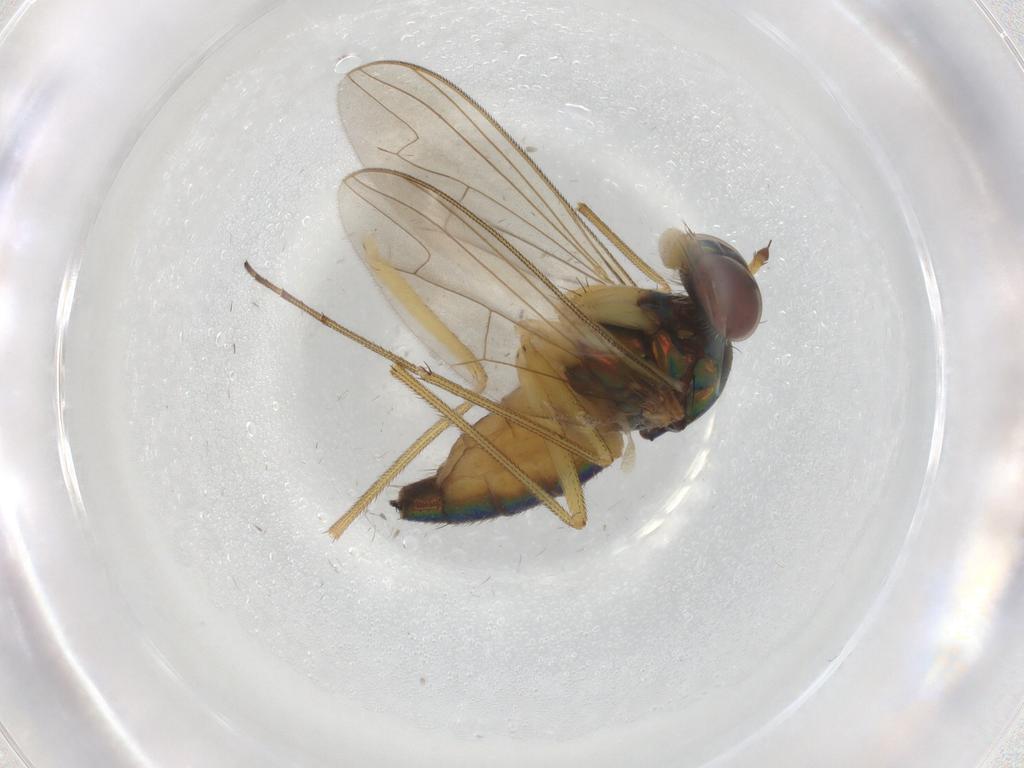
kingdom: Animalia
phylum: Arthropoda
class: Insecta
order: Diptera
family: Dolichopodidae
